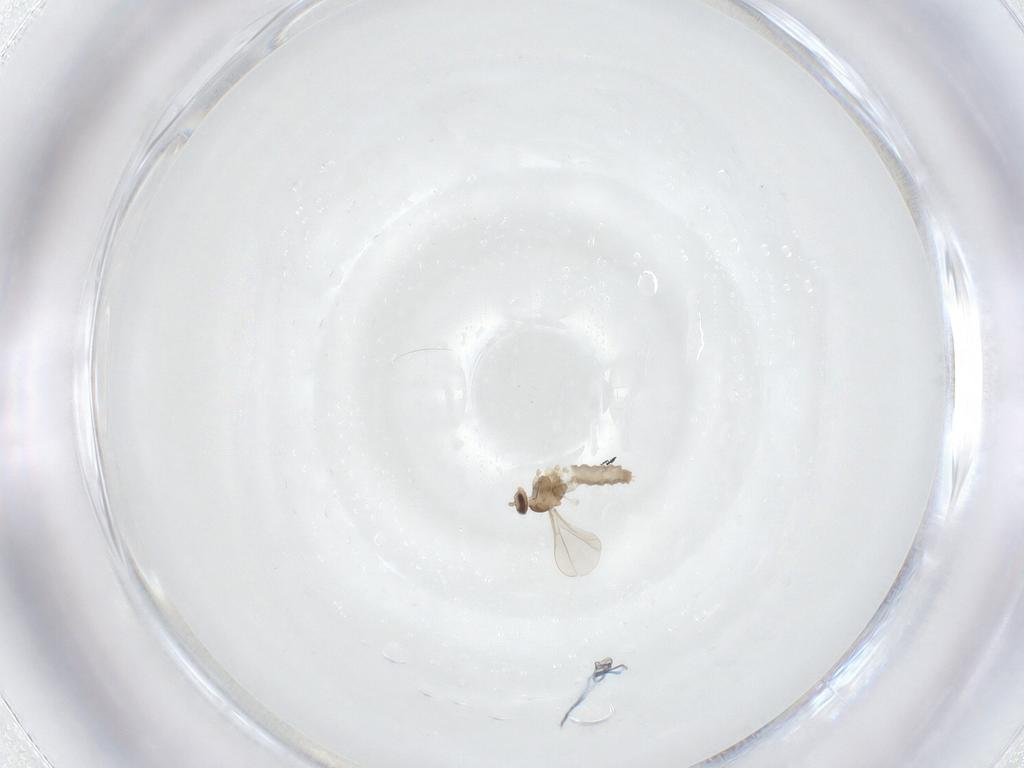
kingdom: Animalia
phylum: Arthropoda
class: Insecta
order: Diptera
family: Cecidomyiidae
